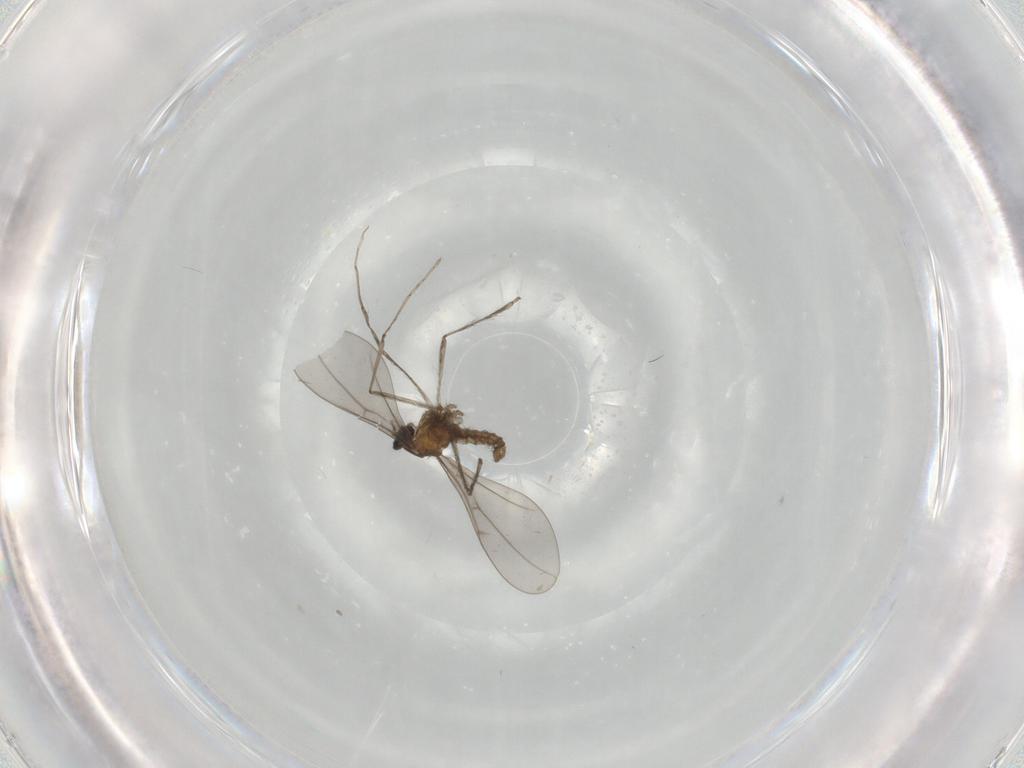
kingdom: Animalia
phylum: Arthropoda
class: Insecta
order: Diptera
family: Cecidomyiidae
